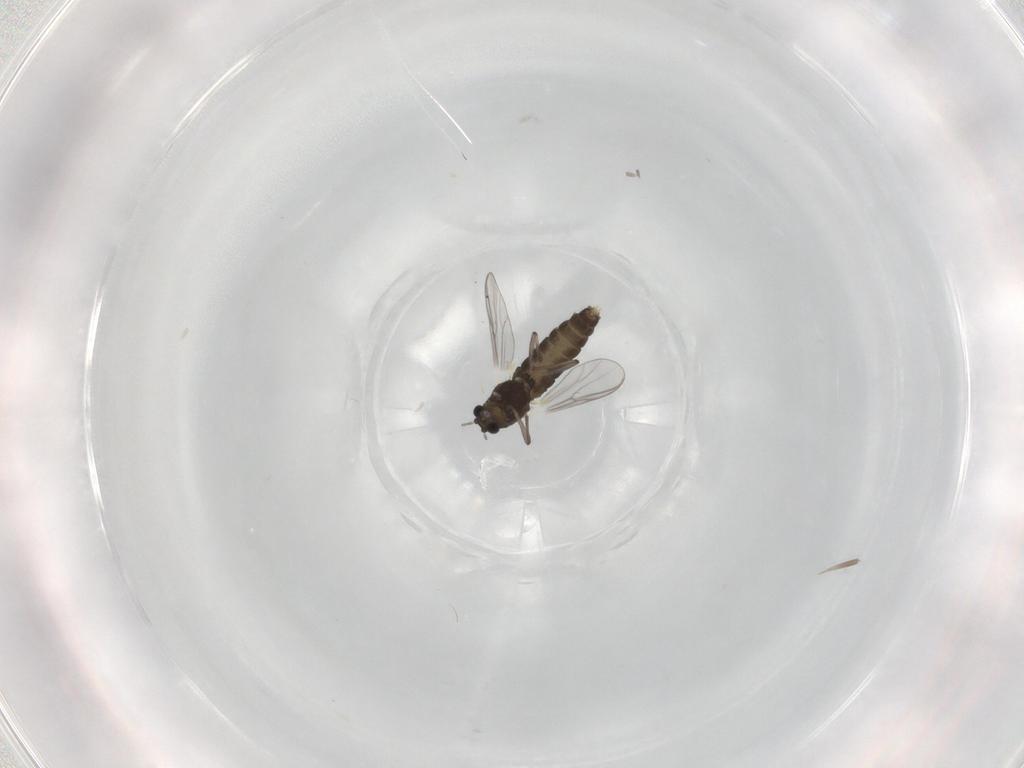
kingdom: Animalia
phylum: Arthropoda
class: Insecta
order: Diptera
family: Chironomidae
